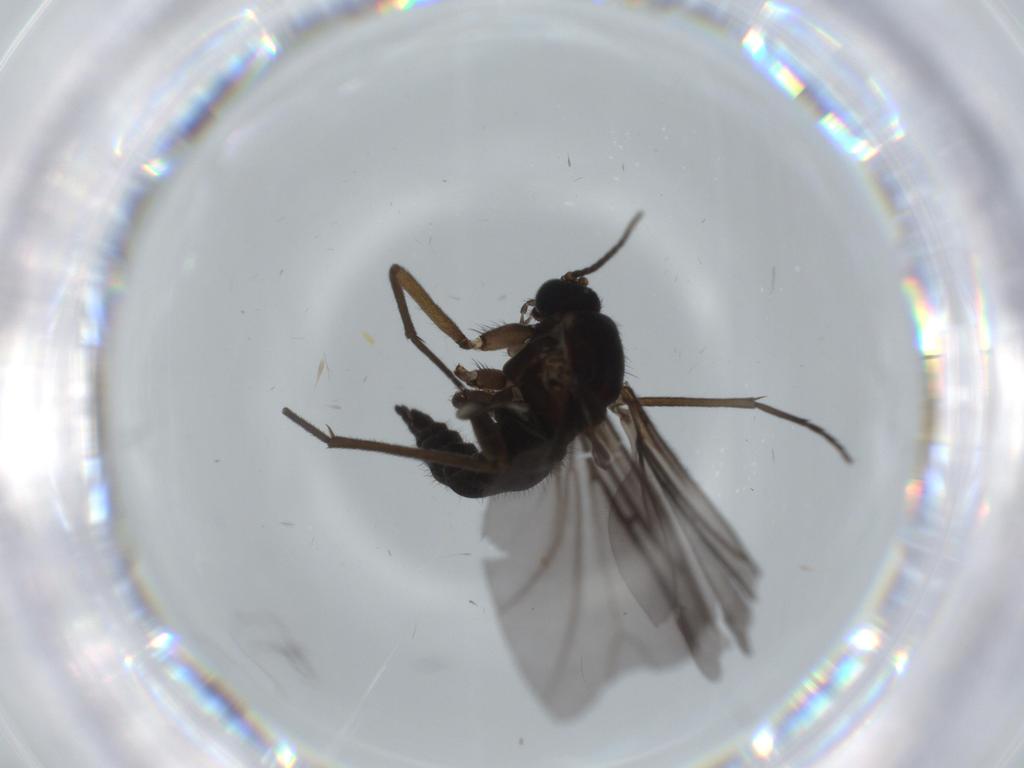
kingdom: Animalia
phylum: Arthropoda
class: Insecta
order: Diptera
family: Sciaridae
